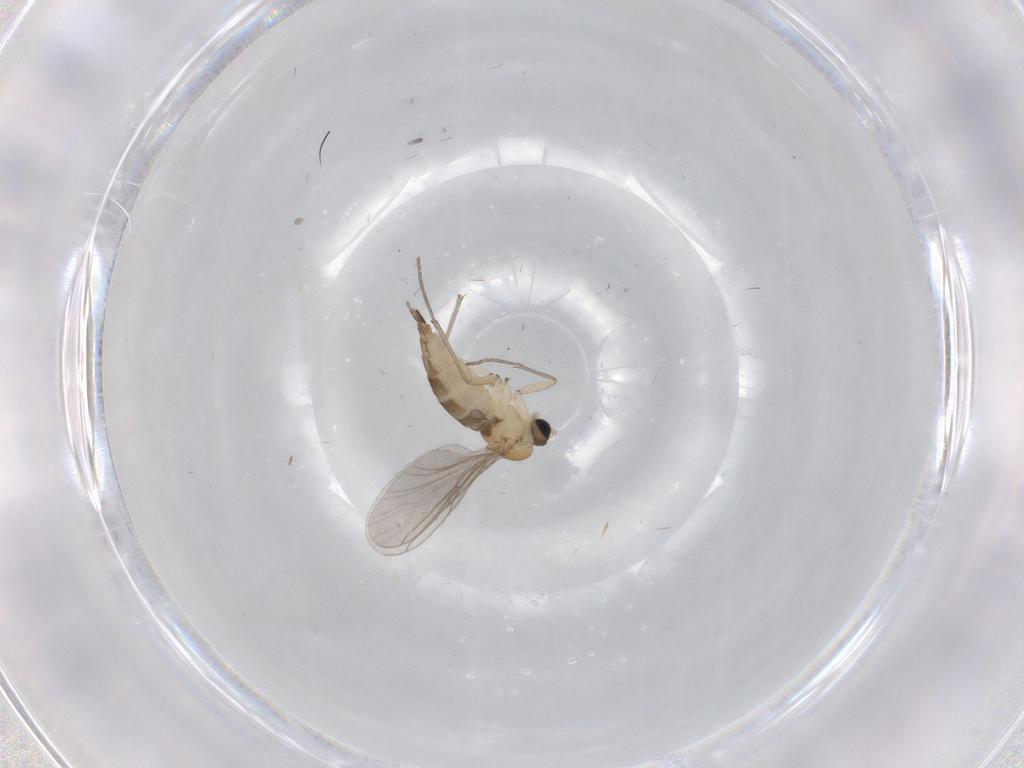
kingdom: Animalia
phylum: Arthropoda
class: Insecta
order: Diptera
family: Sciaridae
